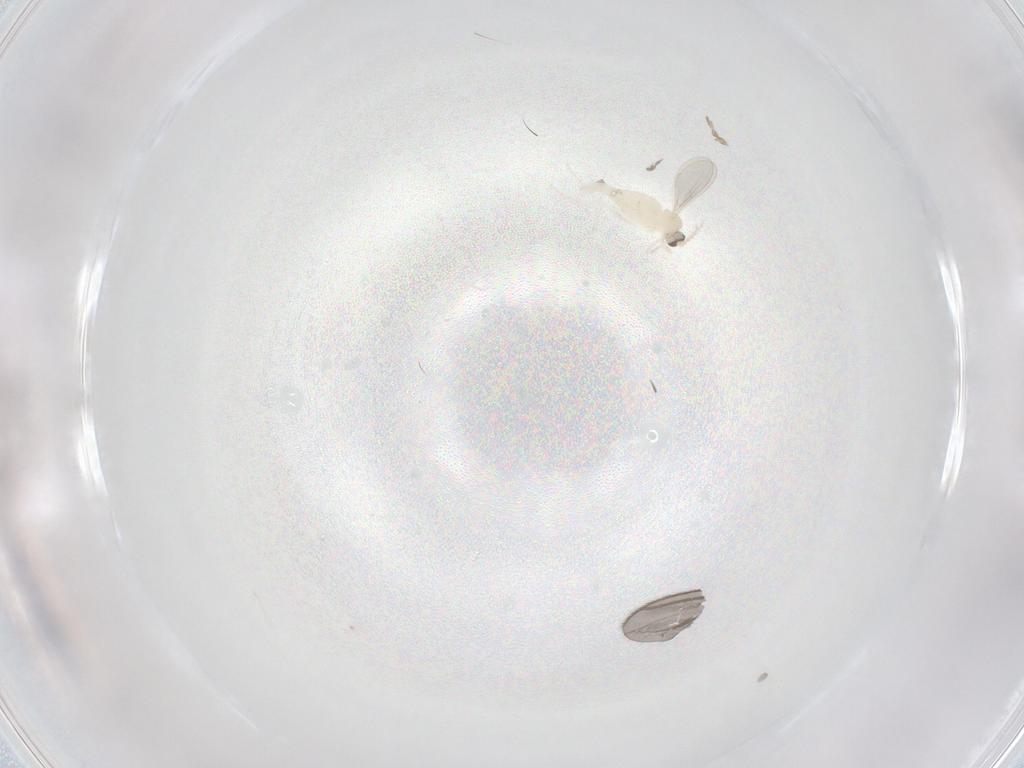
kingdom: Animalia
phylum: Arthropoda
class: Insecta
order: Diptera
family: Cecidomyiidae
